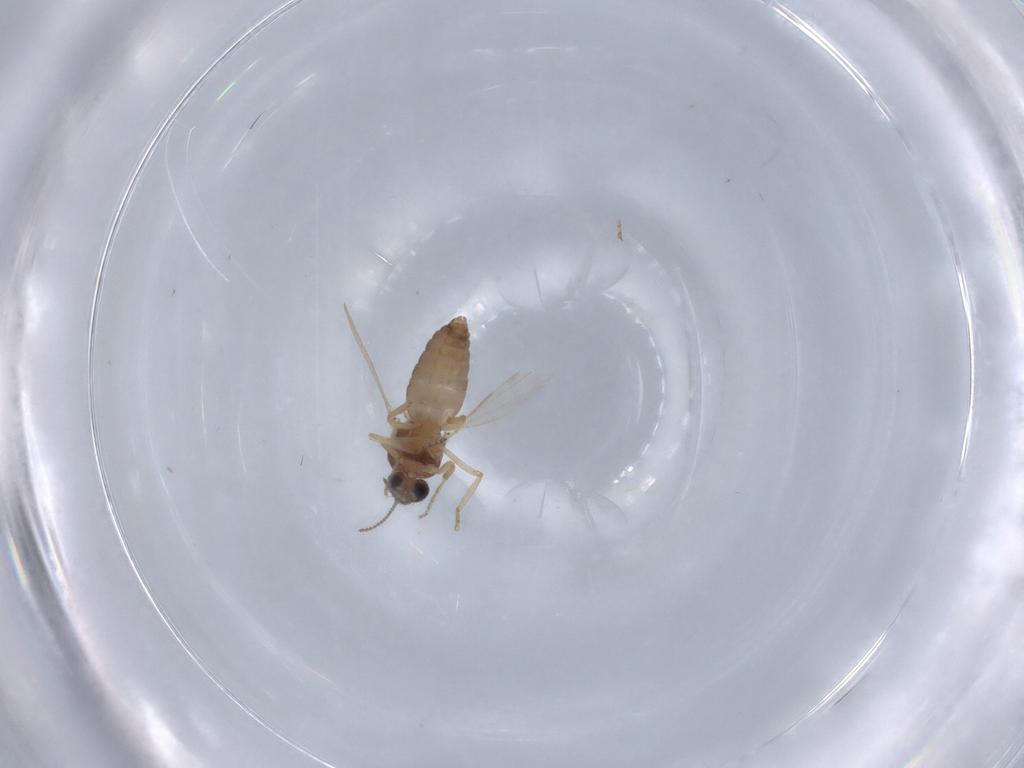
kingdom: Animalia
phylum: Arthropoda
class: Insecta
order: Diptera
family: Ceratopogonidae
